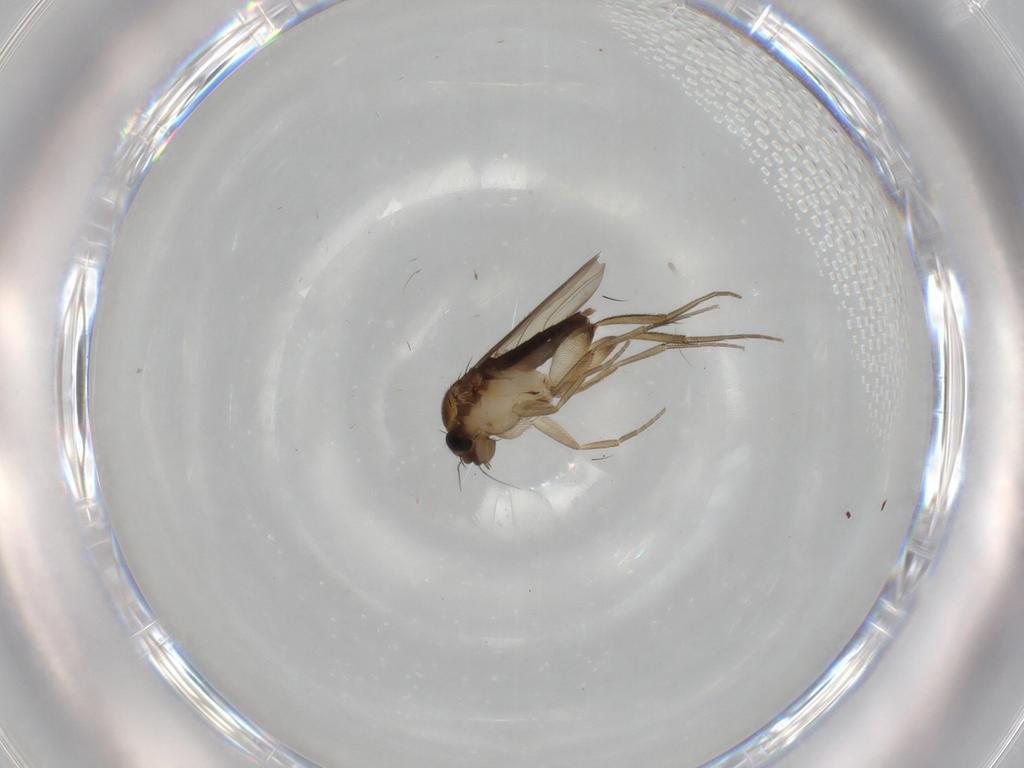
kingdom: Animalia
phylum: Arthropoda
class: Insecta
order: Diptera
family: Phoridae
